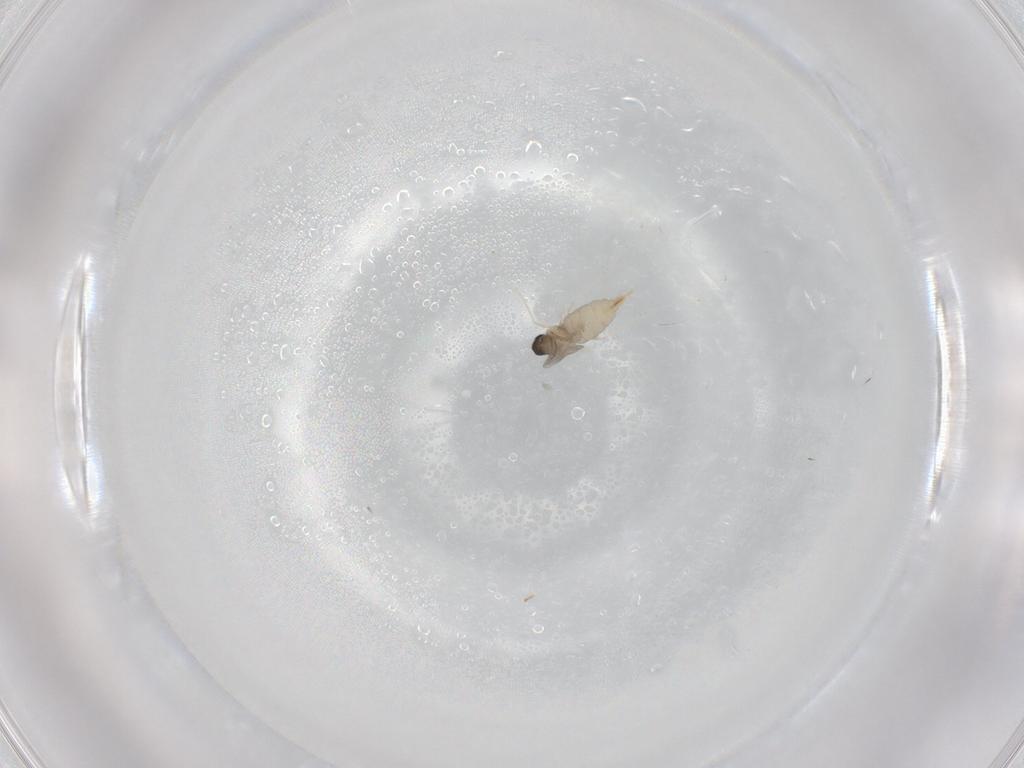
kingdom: Animalia
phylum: Arthropoda
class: Insecta
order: Diptera
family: Cecidomyiidae
